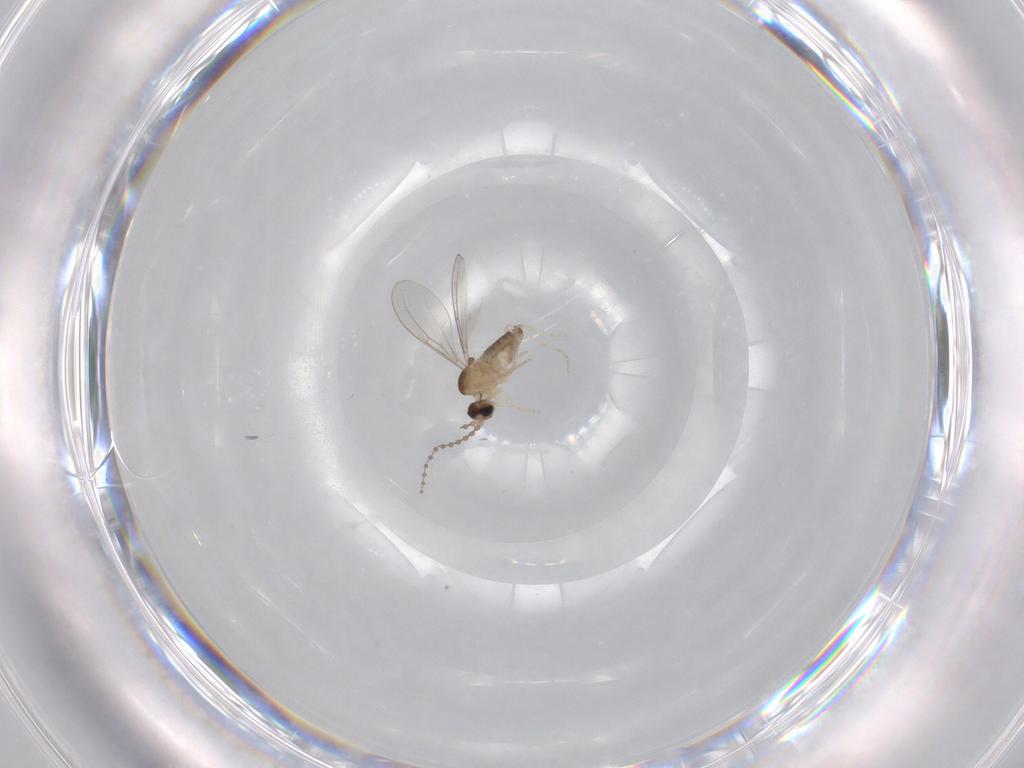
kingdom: Animalia
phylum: Arthropoda
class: Insecta
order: Diptera
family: Cecidomyiidae
